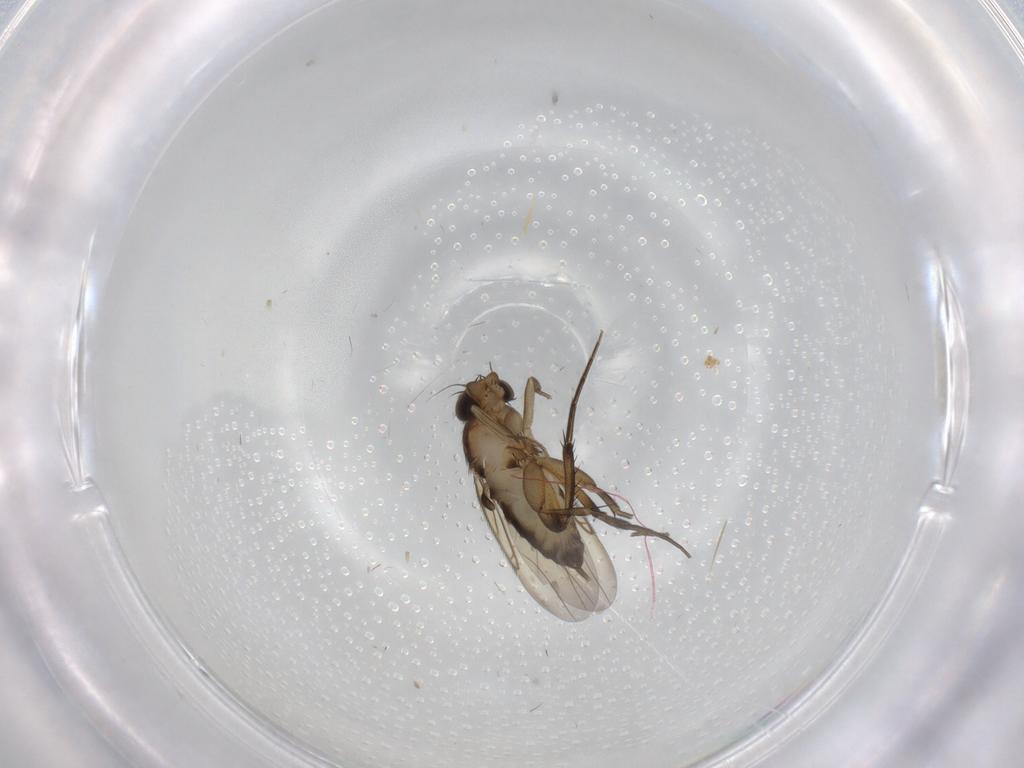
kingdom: Animalia
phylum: Arthropoda
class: Insecta
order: Diptera
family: Phoridae
